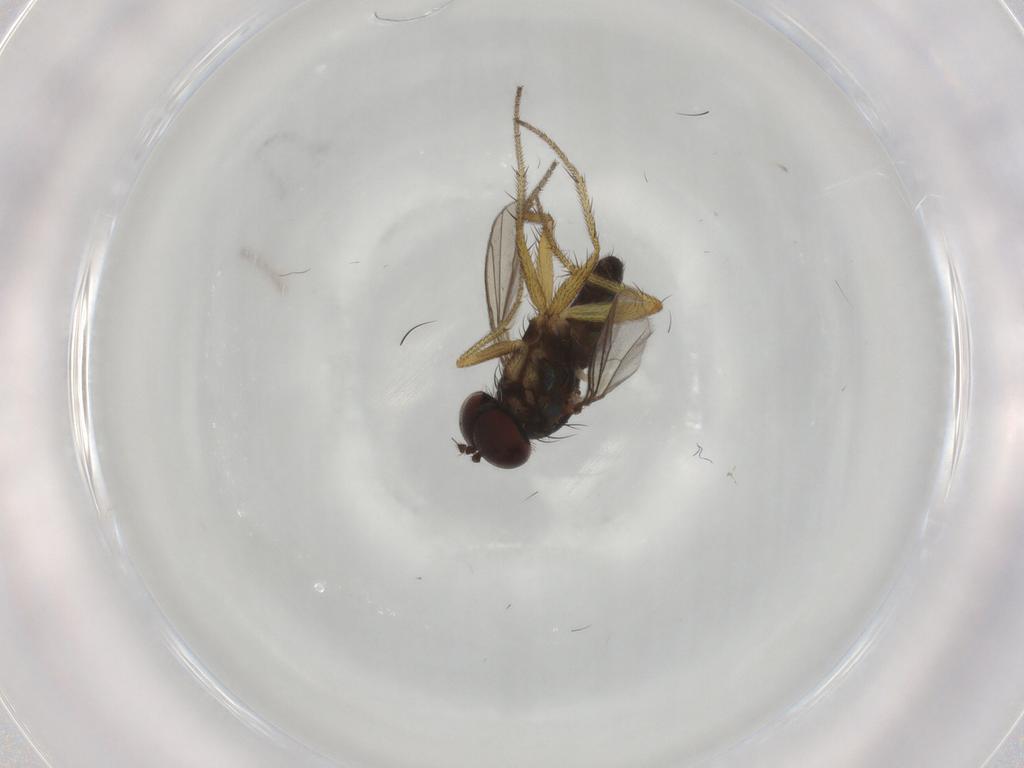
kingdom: Animalia
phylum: Arthropoda
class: Insecta
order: Diptera
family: Dolichopodidae
